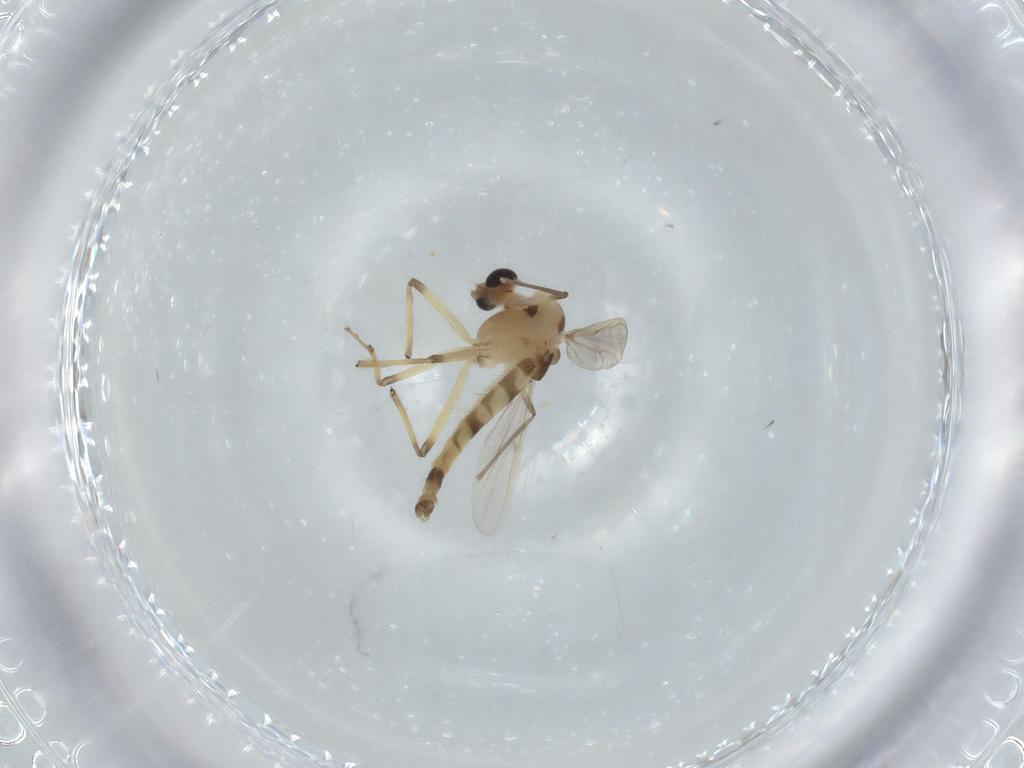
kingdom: Animalia
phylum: Arthropoda
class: Insecta
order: Diptera
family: Chironomidae
